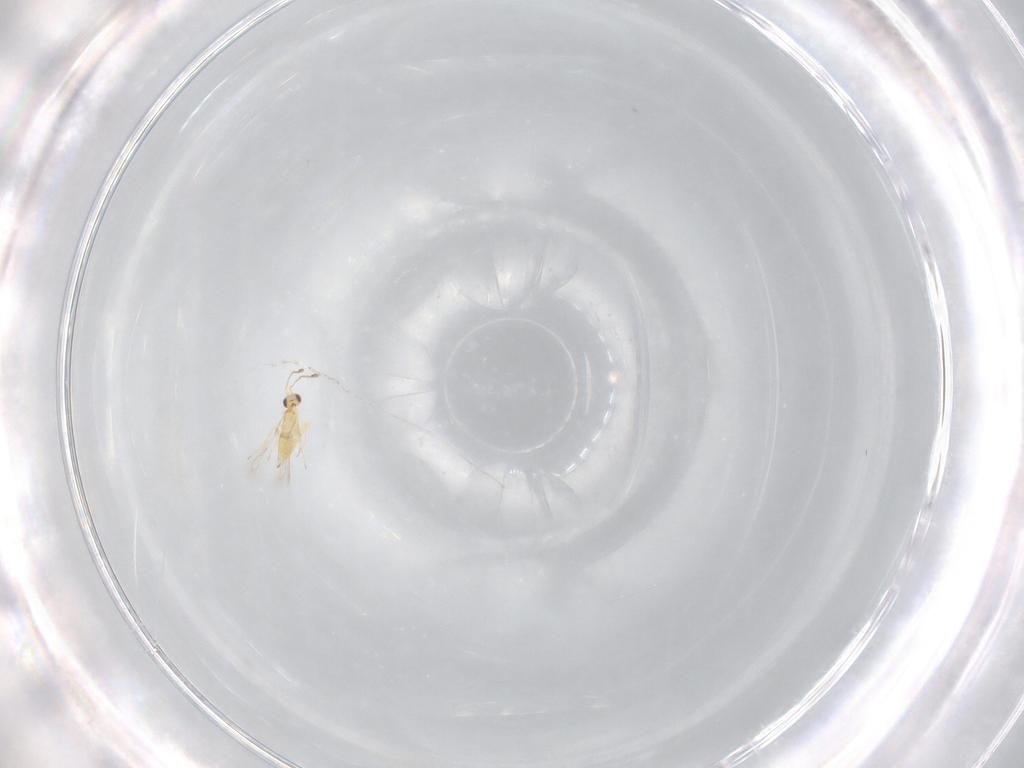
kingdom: Animalia
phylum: Arthropoda
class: Insecta
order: Hymenoptera
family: Mymaridae
